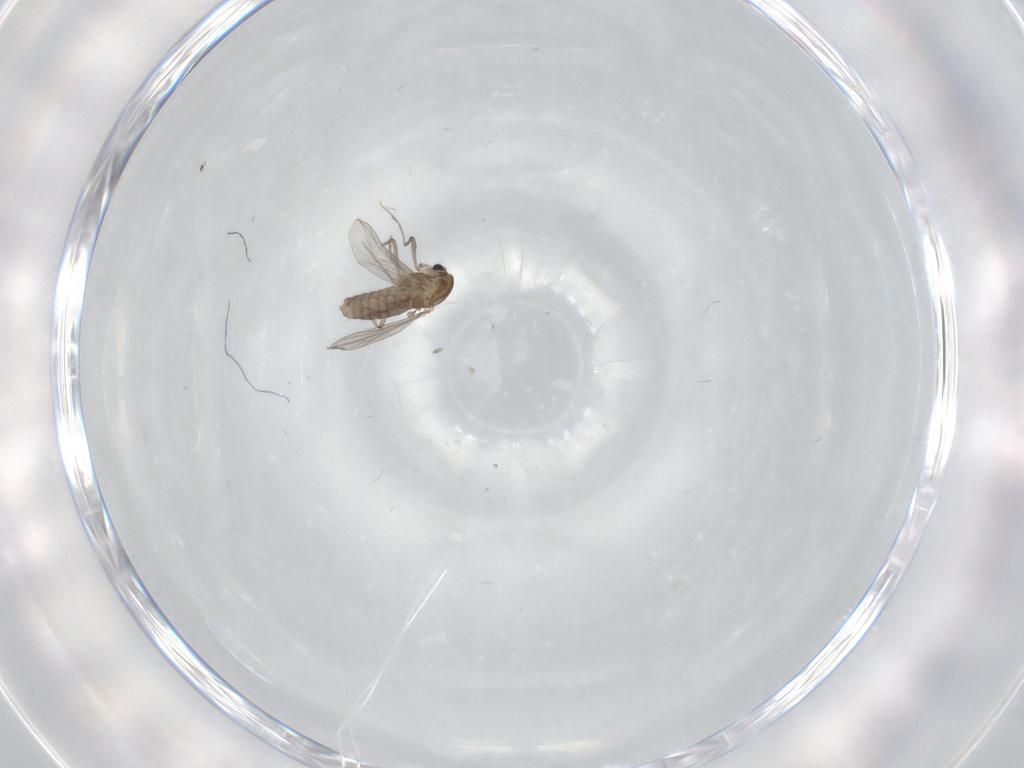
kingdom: Animalia
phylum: Arthropoda
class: Insecta
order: Diptera
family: Chironomidae
